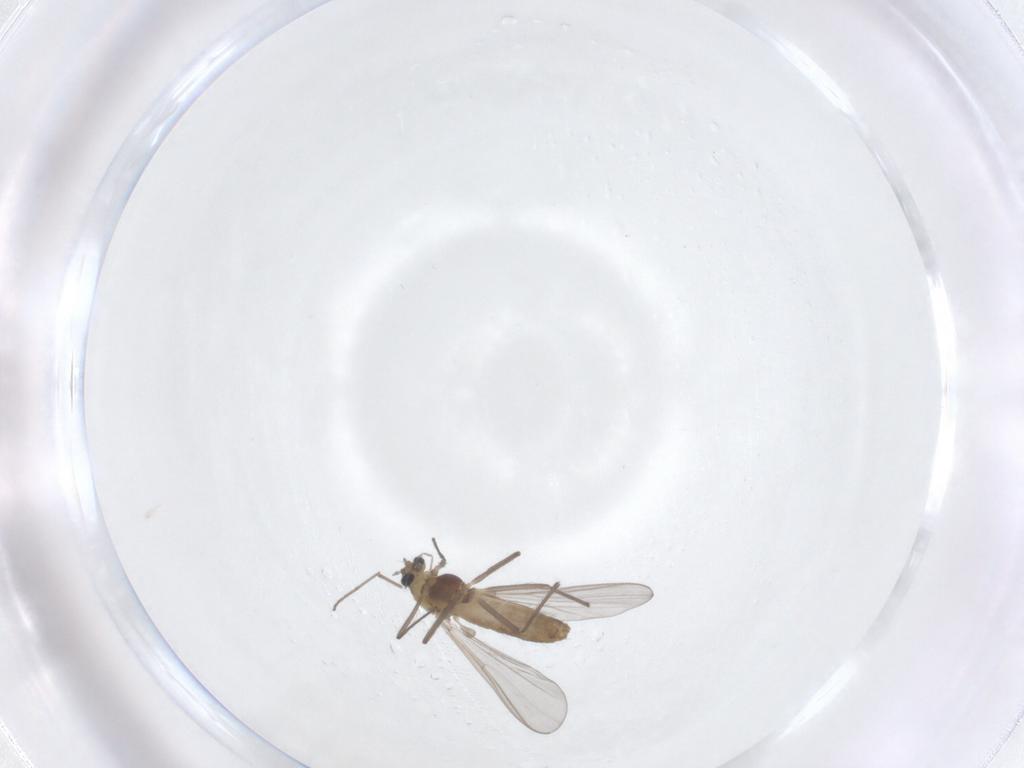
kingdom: Animalia
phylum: Arthropoda
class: Insecta
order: Diptera
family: Chironomidae
